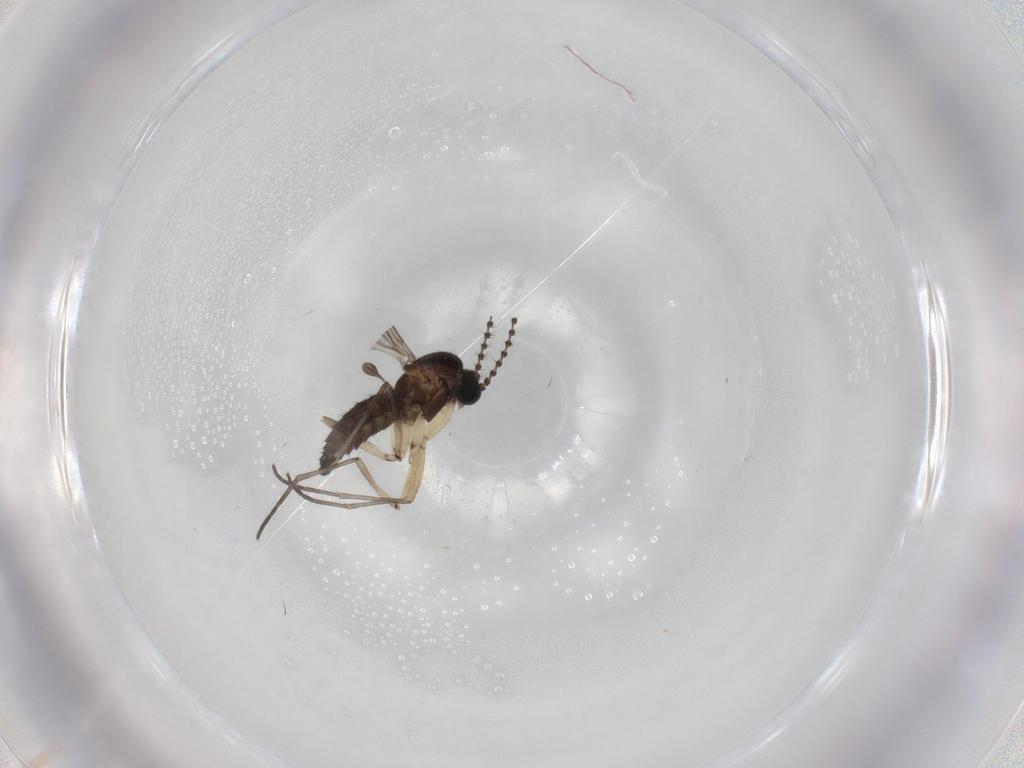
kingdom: Animalia
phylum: Arthropoda
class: Insecta
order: Diptera
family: Sciaridae
